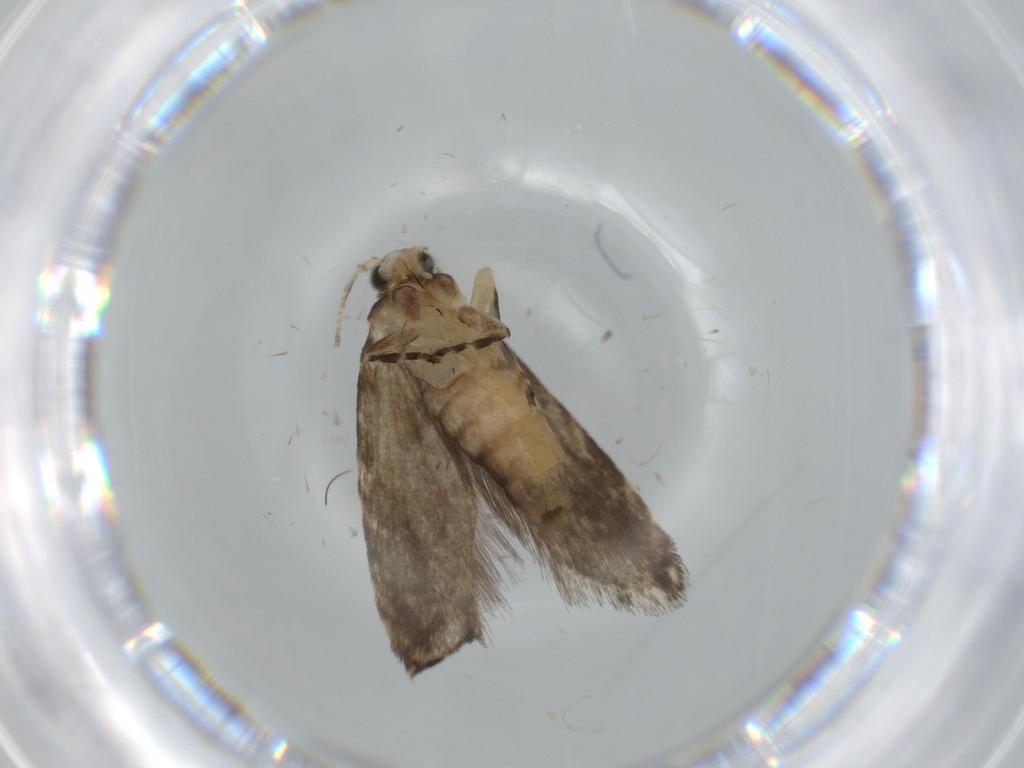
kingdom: Animalia
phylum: Arthropoda
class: Insecta
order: Lepidoptera
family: Tineidae
